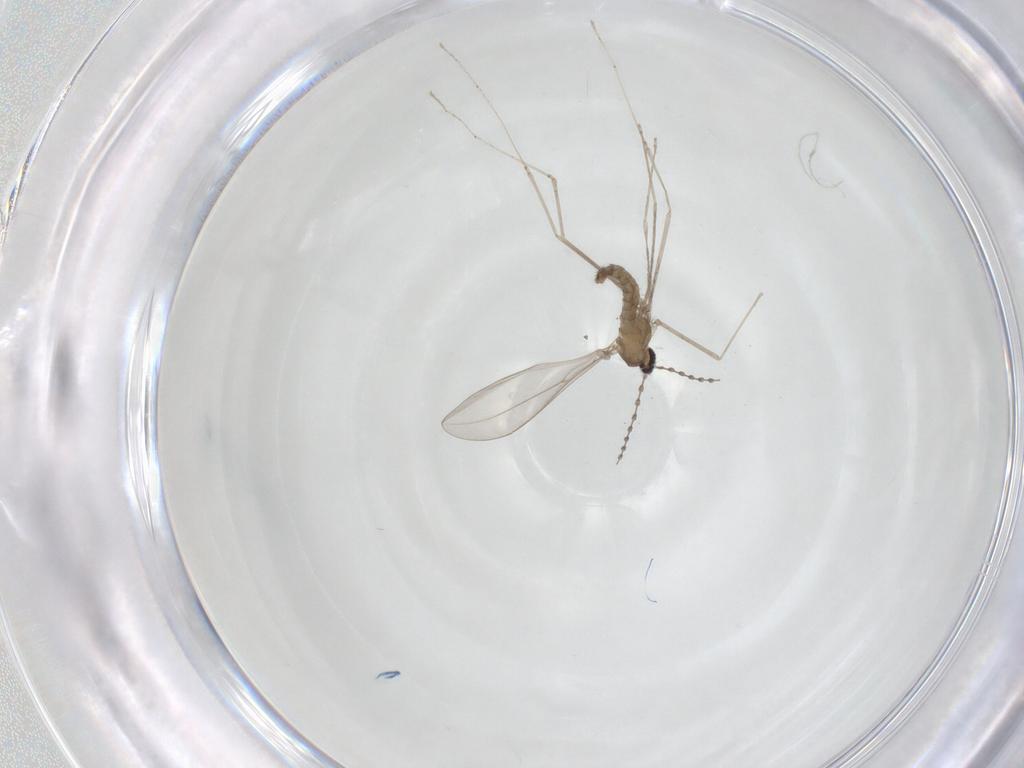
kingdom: Animalia
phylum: Arthropoda
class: Insecta
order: Diptera
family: Cecidomyiidae
